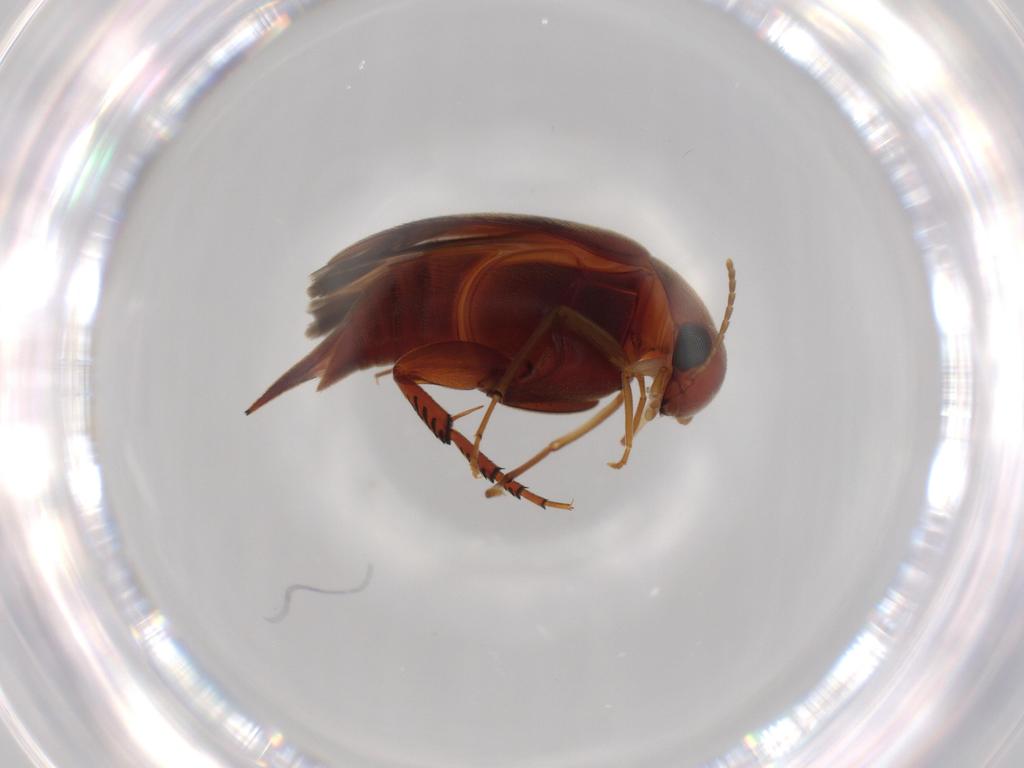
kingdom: Animalia
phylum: Arthropoda
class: Insecta
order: Coleoptera
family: Mordellidae
